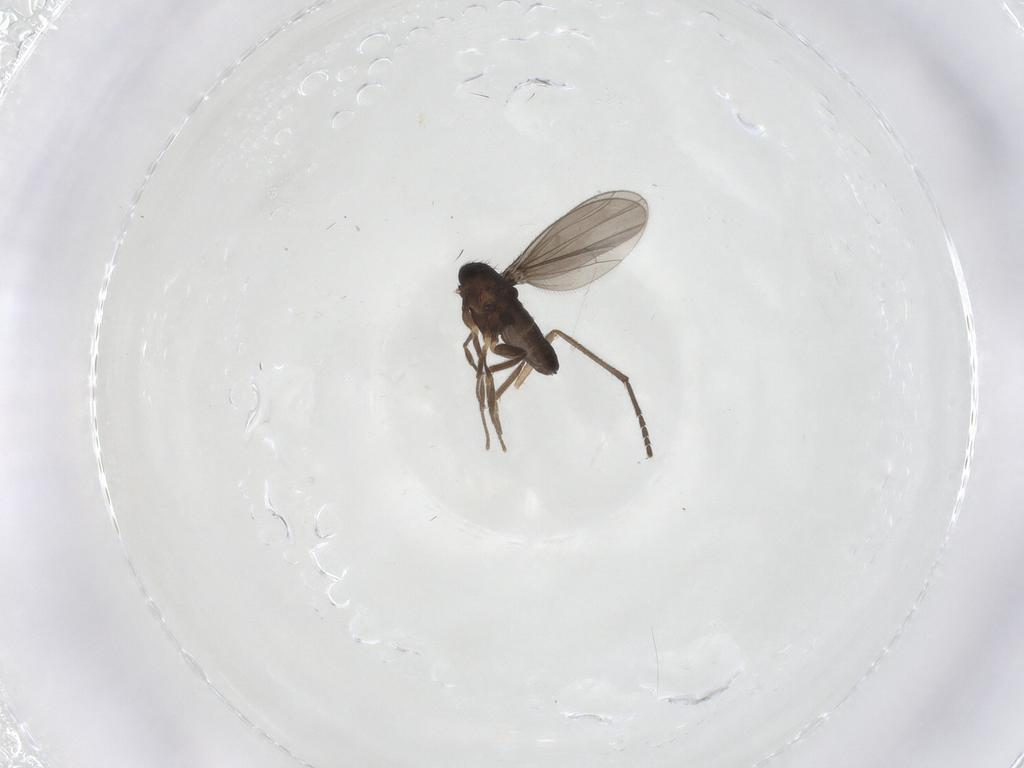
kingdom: Animalia
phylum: Arthropoda
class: Insecta
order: Diptera
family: Dolichopodidae
